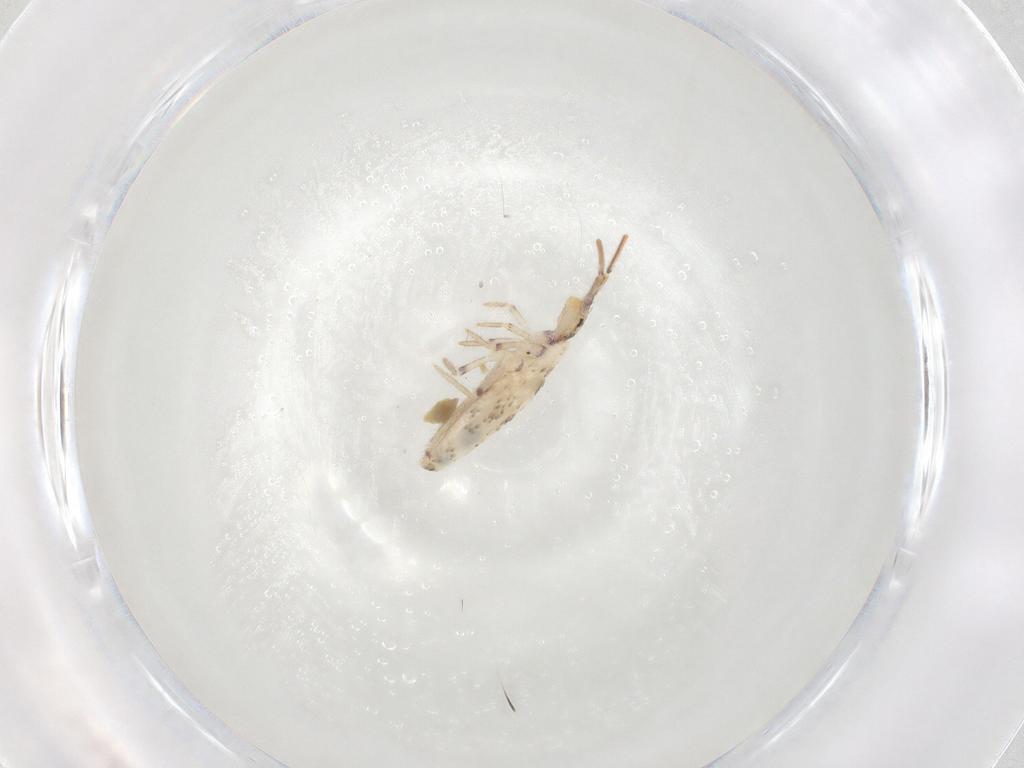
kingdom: Animalia
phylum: Arthropoda
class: Collembola
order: Entomobryomorpha
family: Entomobryidae
